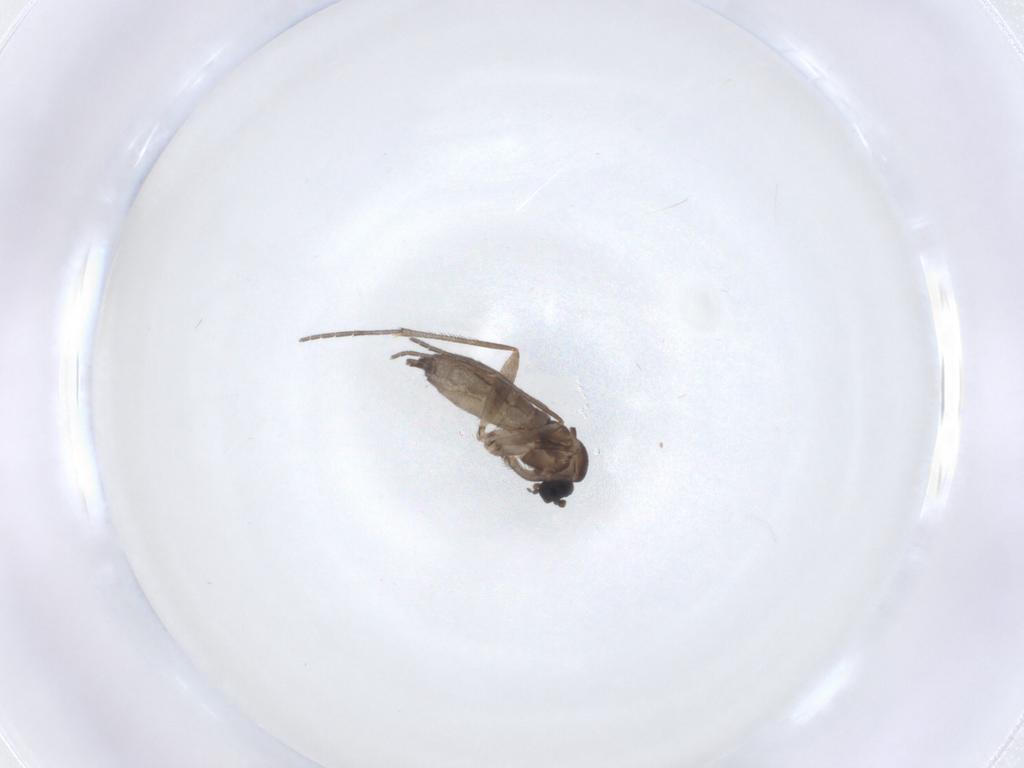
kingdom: Animalia
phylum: Arthropoda
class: Insecta
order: Diptera
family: Sciaridae
